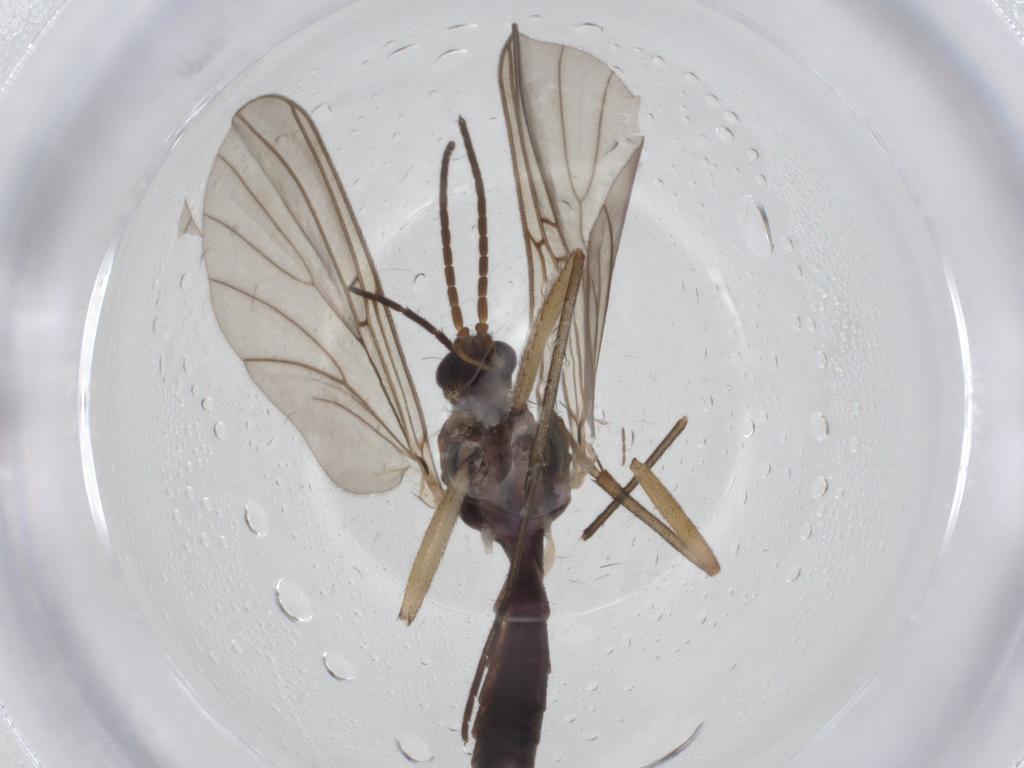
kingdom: Animalia
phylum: Arthropoda
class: Insecta
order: Diptera
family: Mycetophilidae
